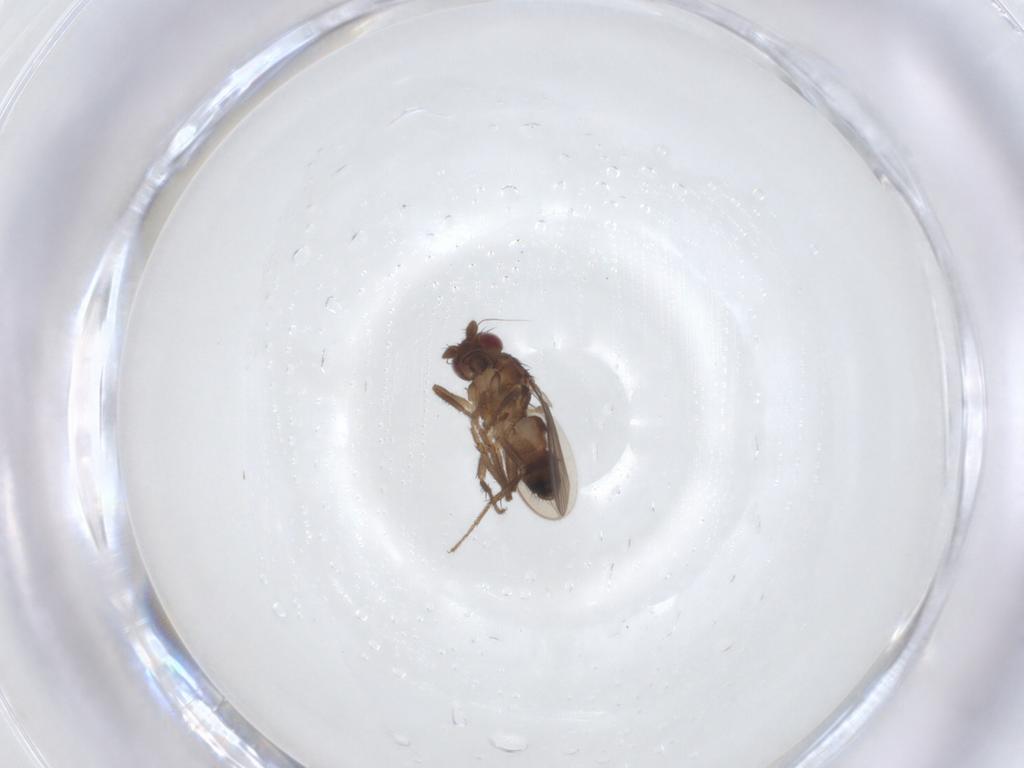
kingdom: Animalia
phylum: Arthropoda
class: Insecta
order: Diptera
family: Sphaeroceridae
